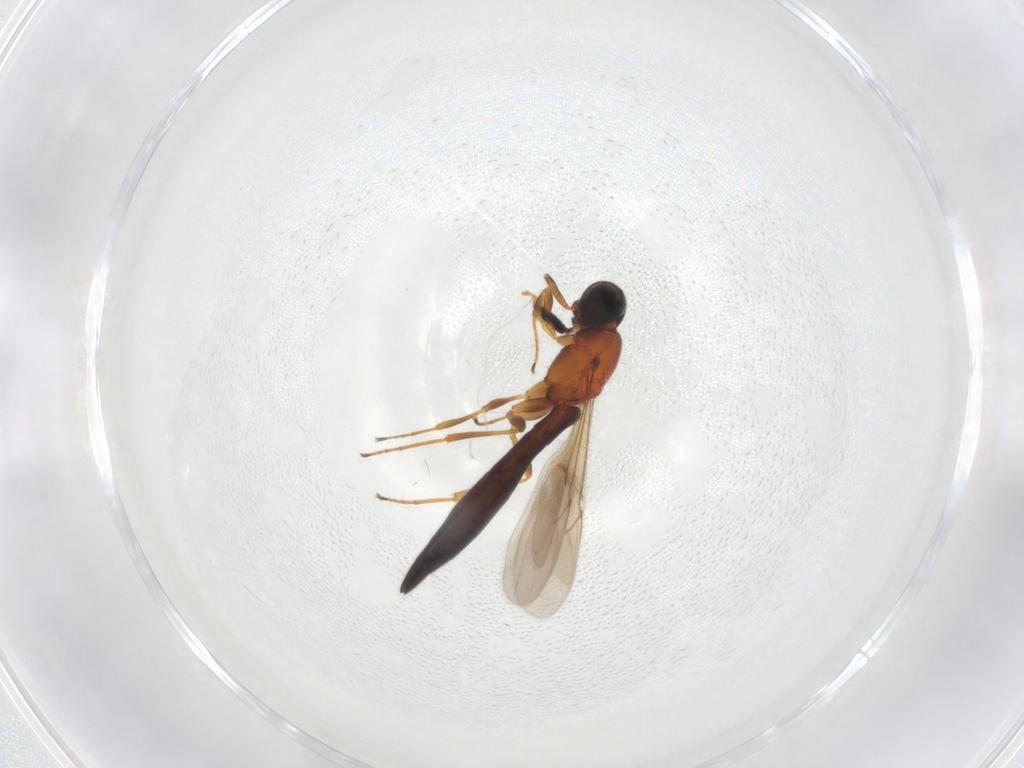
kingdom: Animalia
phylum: Arthropoda
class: Insecta
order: Hymenoptera
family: Scelionidae
